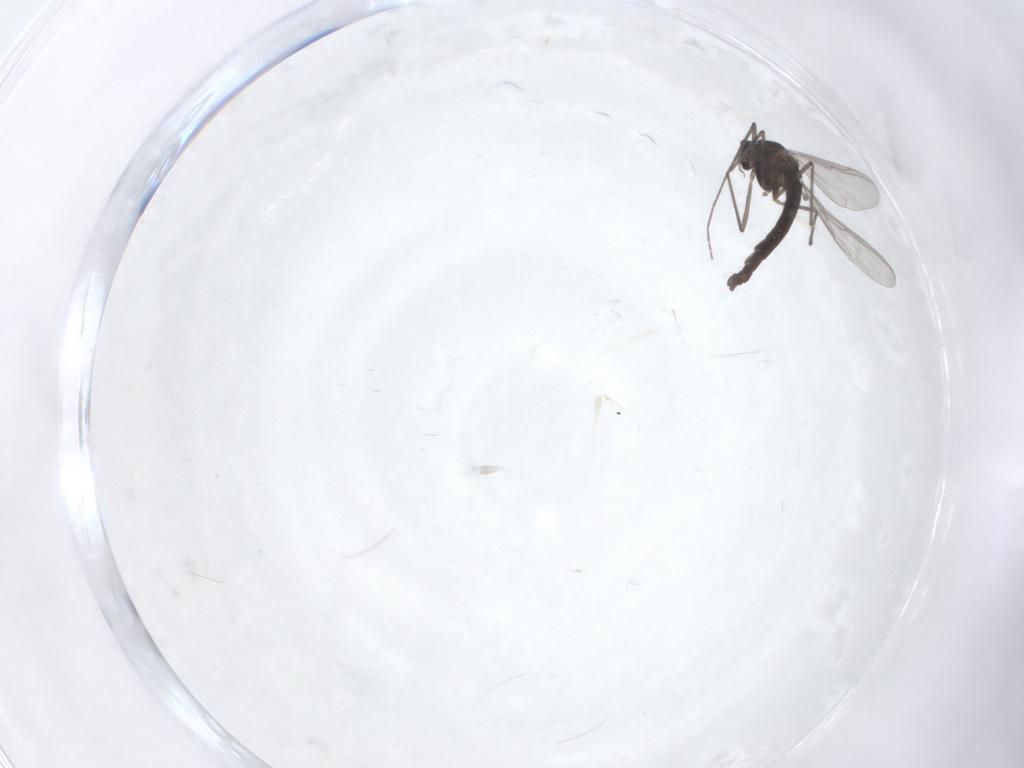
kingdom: Animalia
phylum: Arthropoda
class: Insecta
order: Diptera
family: Chironomidae
